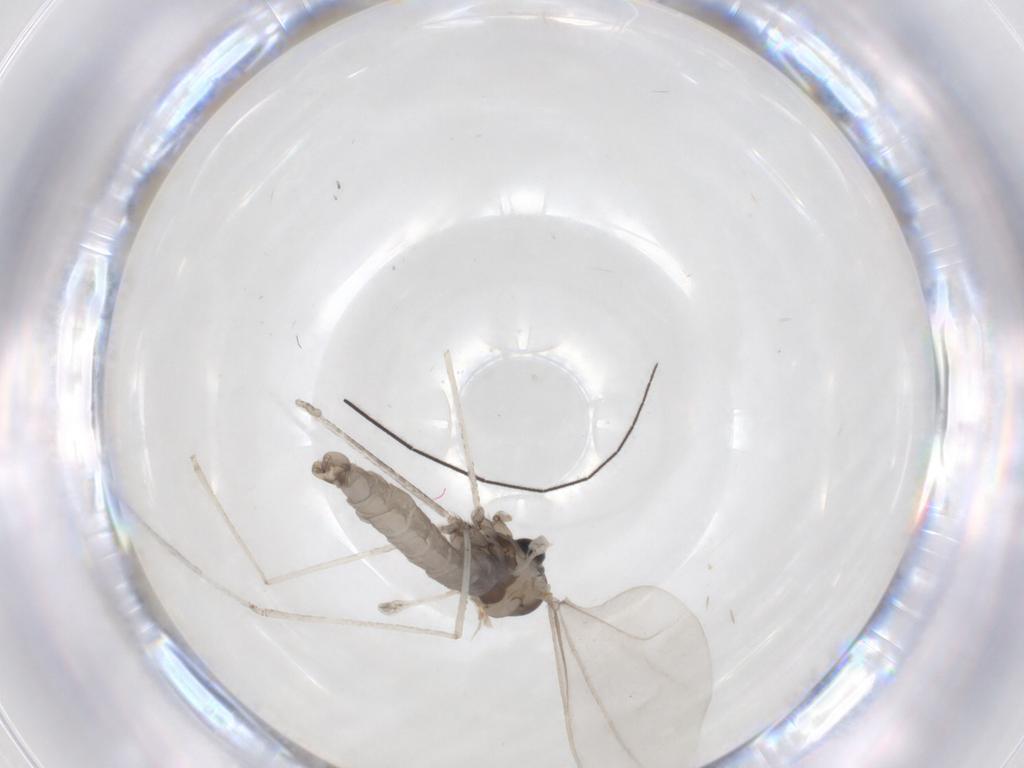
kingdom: Animalia
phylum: Arthropoda
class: Insecta
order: Diptera
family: Cecidomyiidae
